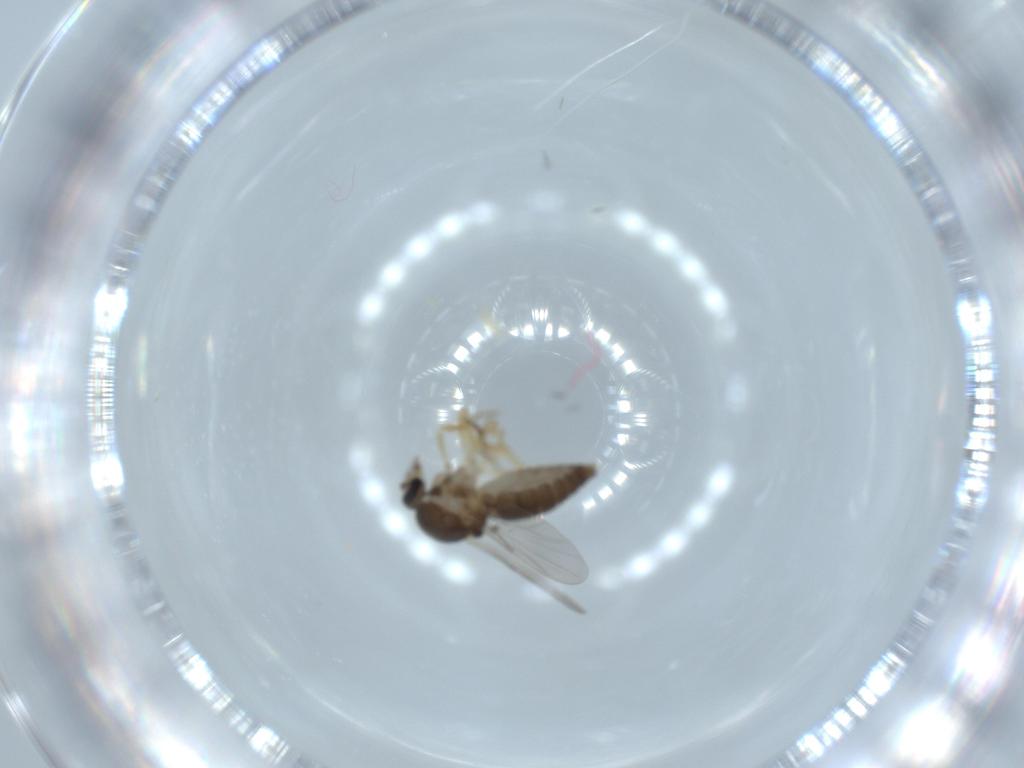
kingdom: Animalia
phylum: Arthropoda
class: Insecta
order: Diptera
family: Ceratopogonidae
